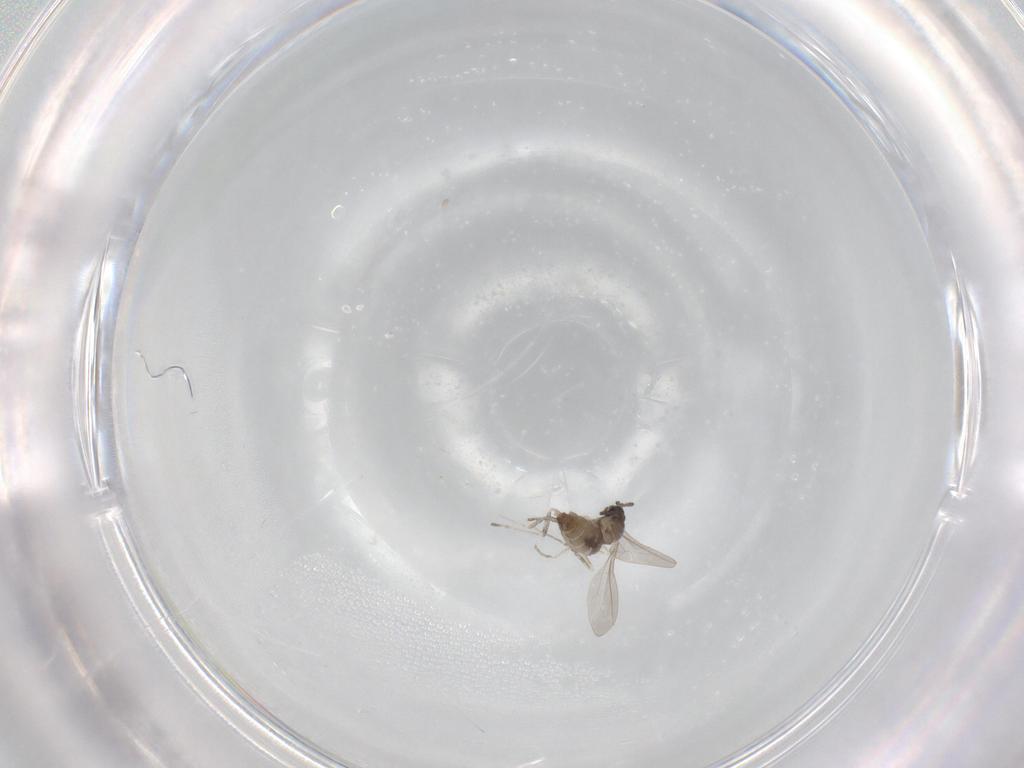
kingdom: Animalia
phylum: Arthropoda
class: Insecta
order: Diptera
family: Cecidomyiidae
